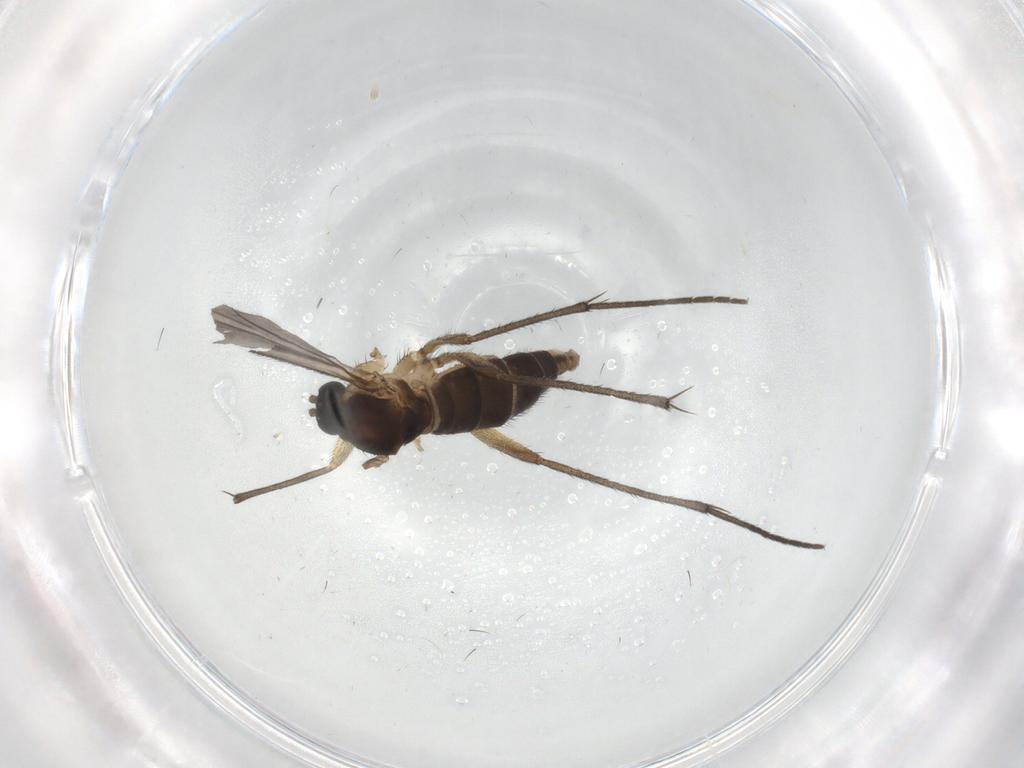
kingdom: Animalia
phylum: Arthropoda
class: Insecta
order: Diptera
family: Sciaridae
